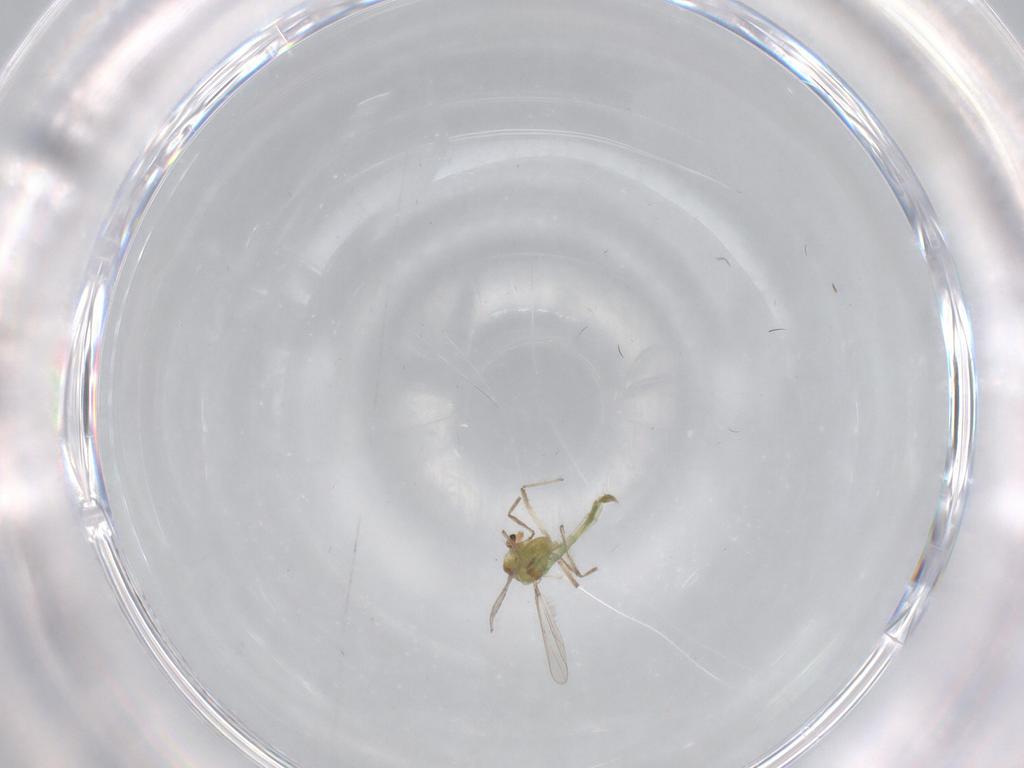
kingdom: Animalia
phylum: Arthropoda
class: Insecta
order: Diptera
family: Chironomidae
